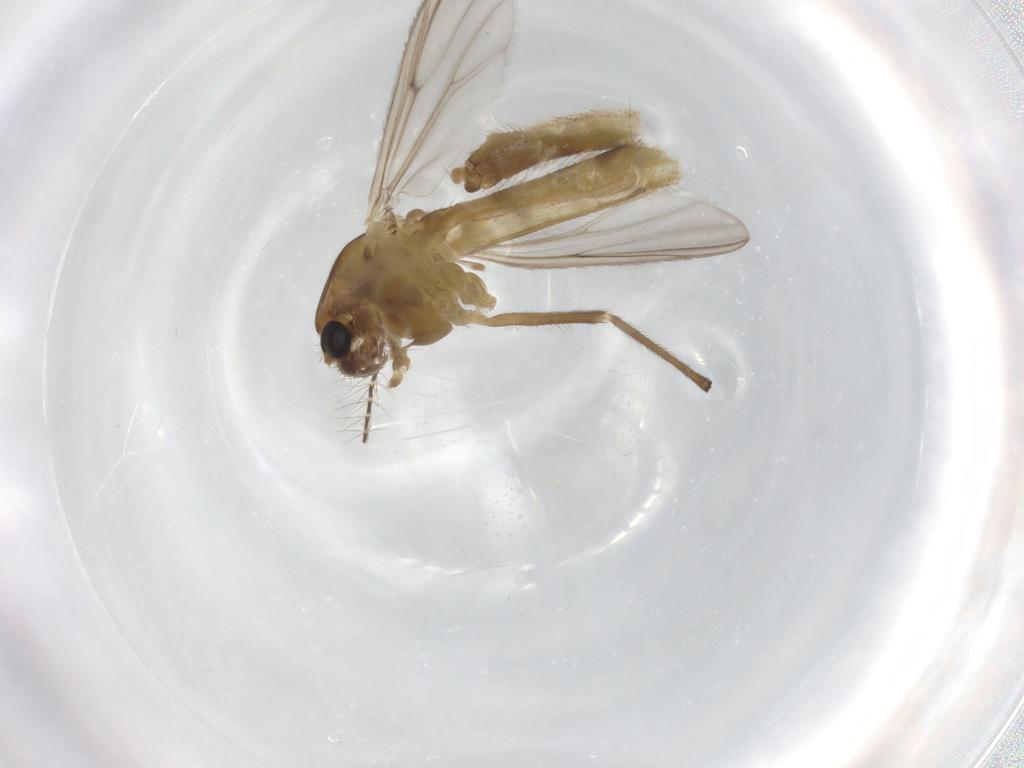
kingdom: Animalia
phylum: Arthropoda
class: Insecta
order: Diptera
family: Chironomidae
